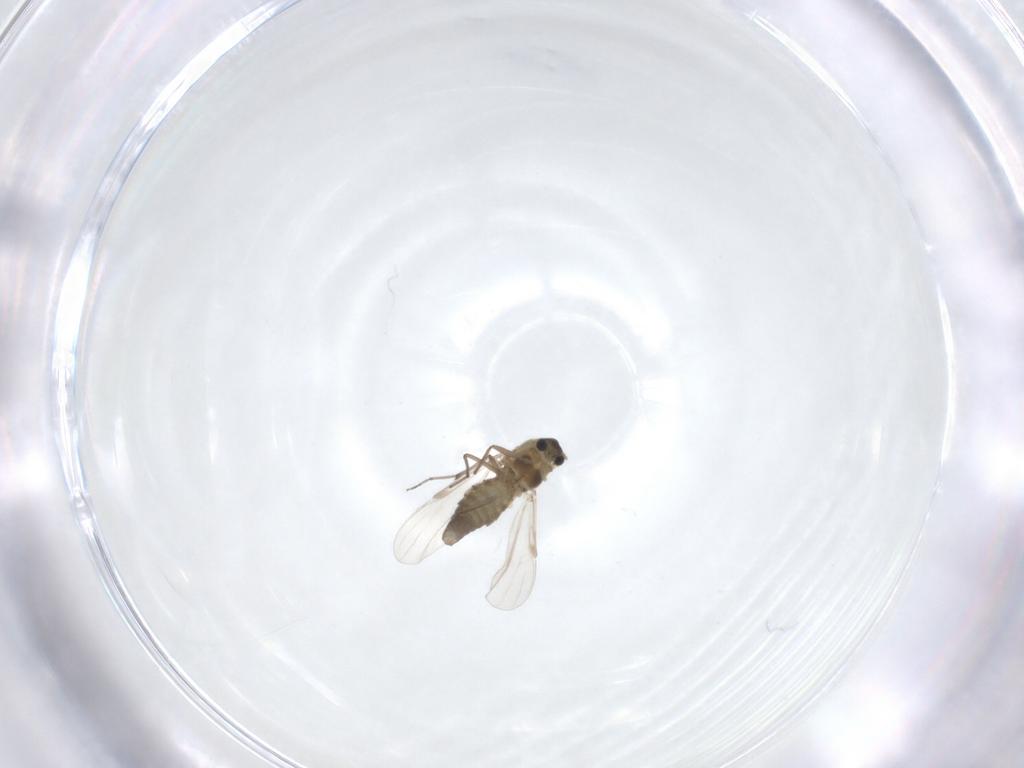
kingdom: Animalia
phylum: Arthropoda
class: Insecta
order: Diptera
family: Sciaridae
